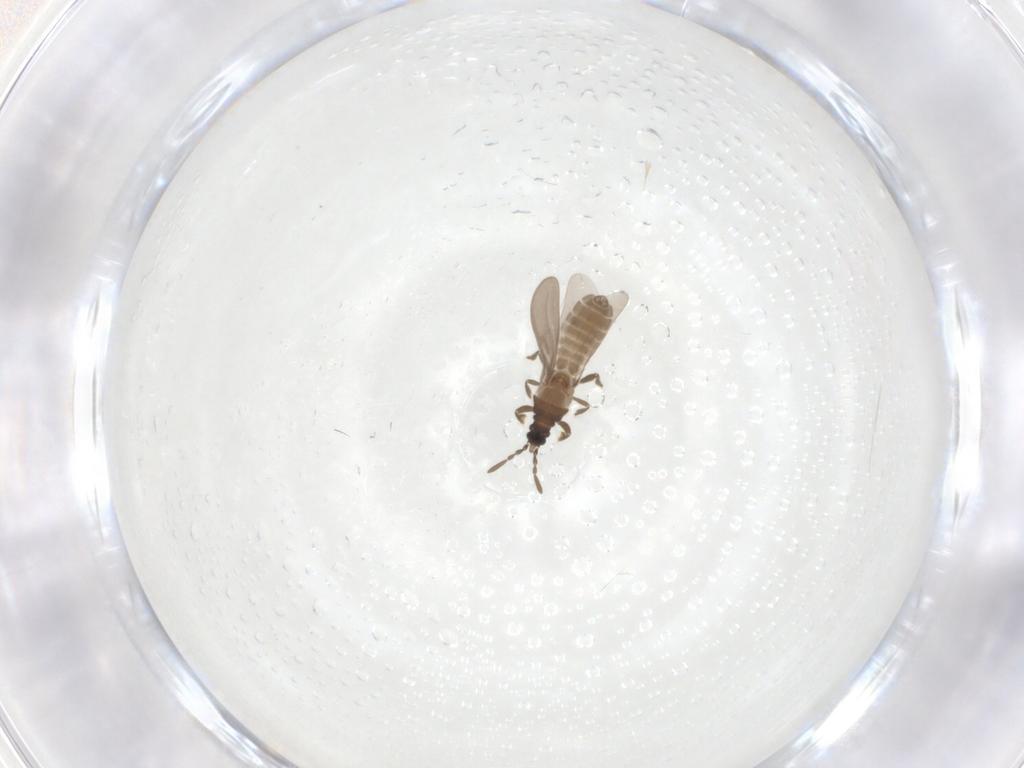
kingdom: Animalia
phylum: Arthropoda
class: Insecta
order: Hemiptera
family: Enicocephalidae
